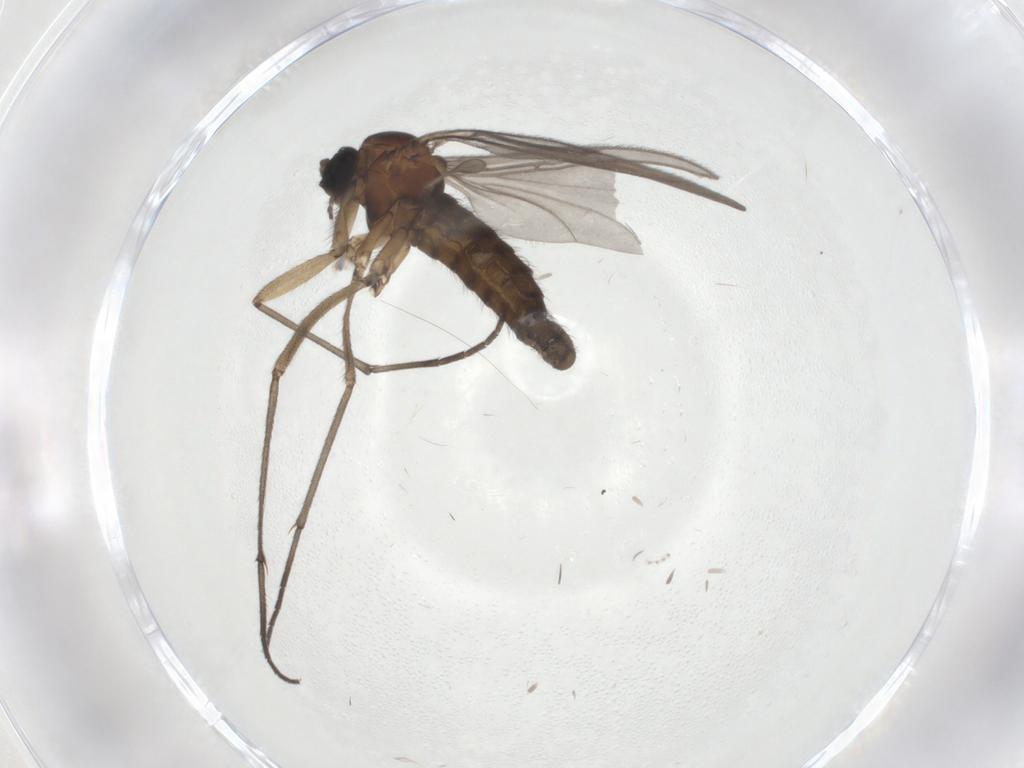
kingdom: Animalia
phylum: Arthropoda
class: Insecta
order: Diptera
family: Sciaridae
